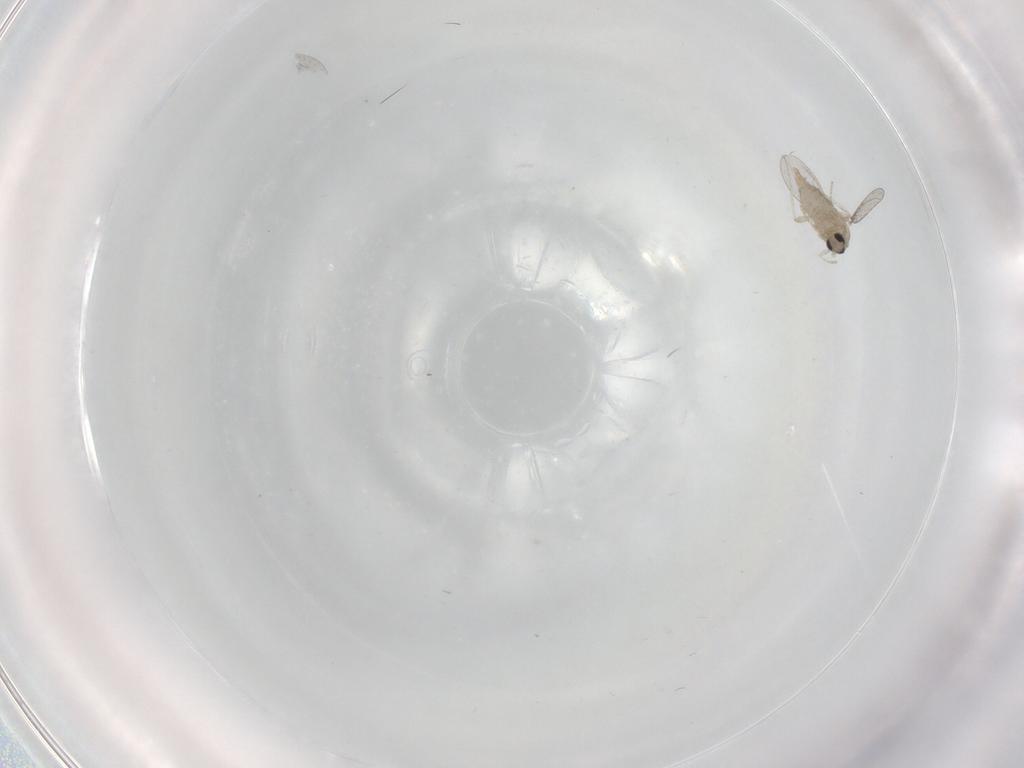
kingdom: Animalia
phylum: Arthropoda
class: Insecta
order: Diptera
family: Cecidomyiidae
